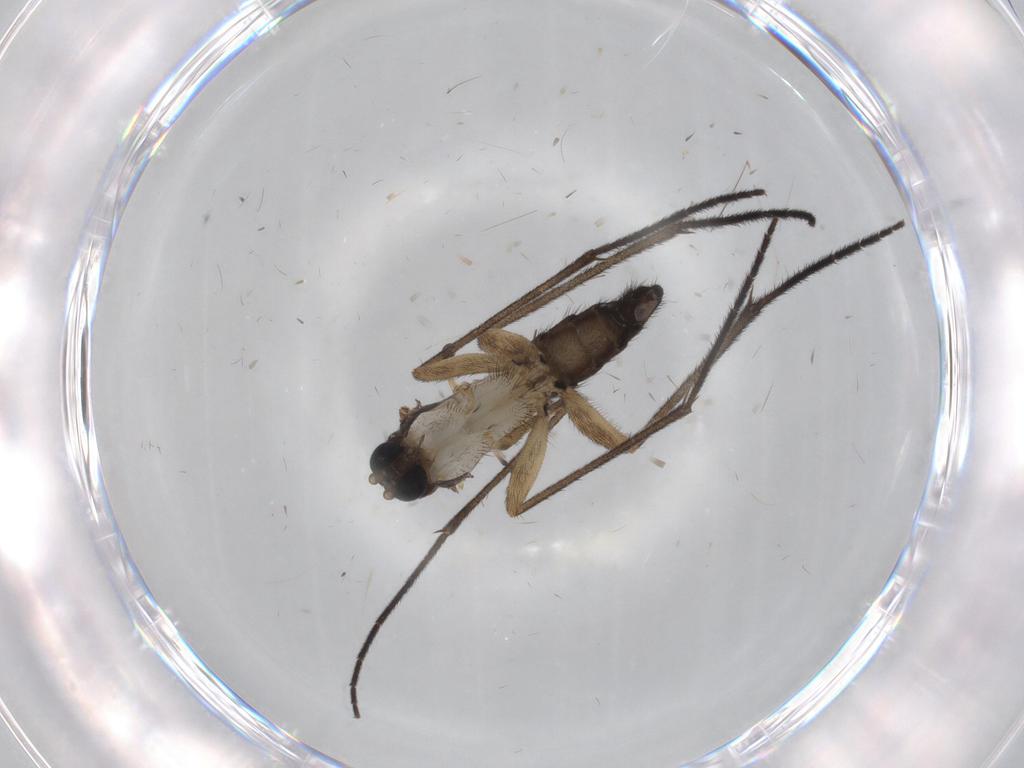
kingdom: Animalia
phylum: Arthropoda
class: Insecta
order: Diptera
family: Sciaridae
